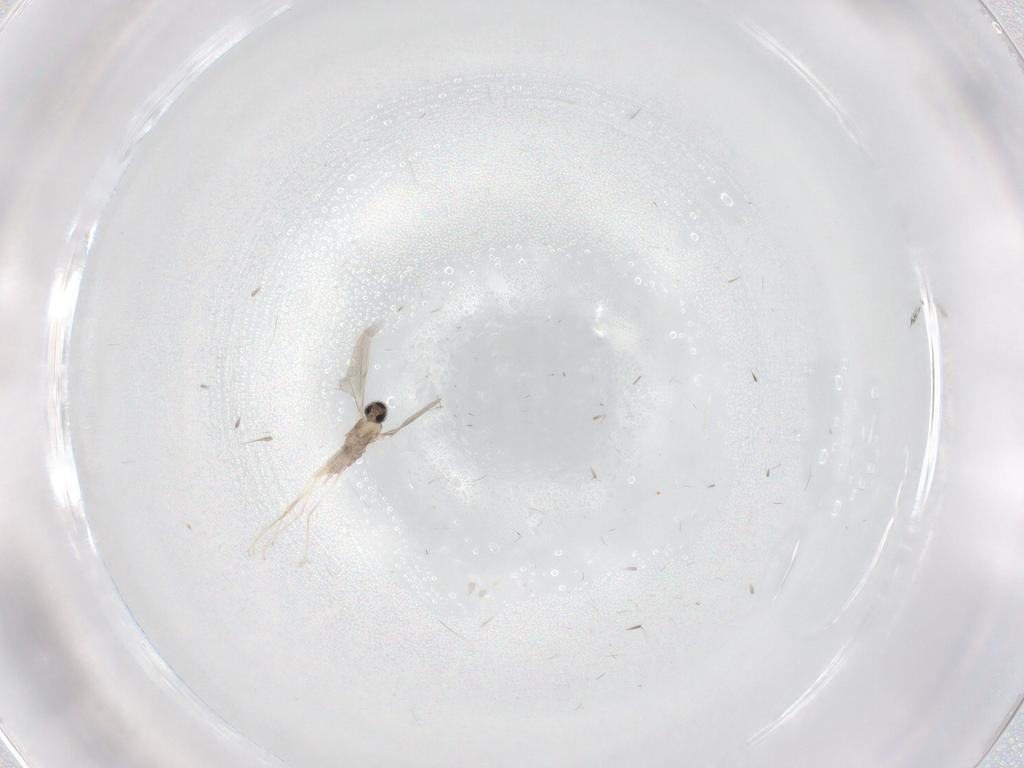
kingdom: Animalia
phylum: Arthropoda
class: Insecta
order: Diptera
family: Cecidomyiidae
